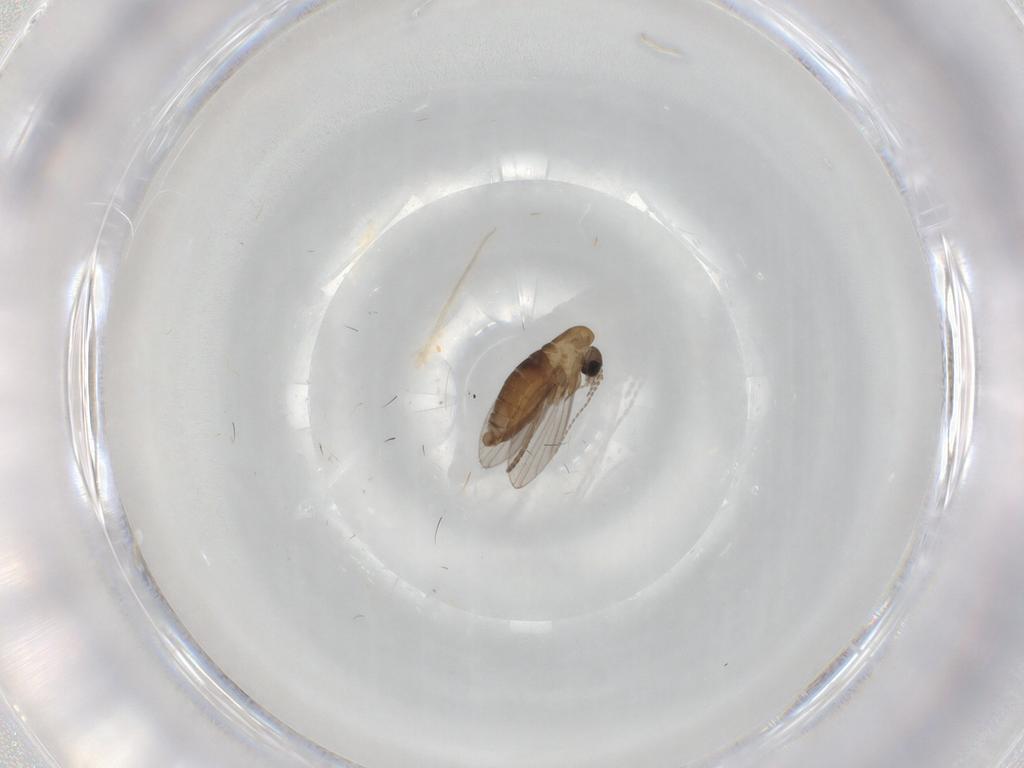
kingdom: Animalia
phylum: Arthropoda
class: Insecta
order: Diptera
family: Psychodidae
